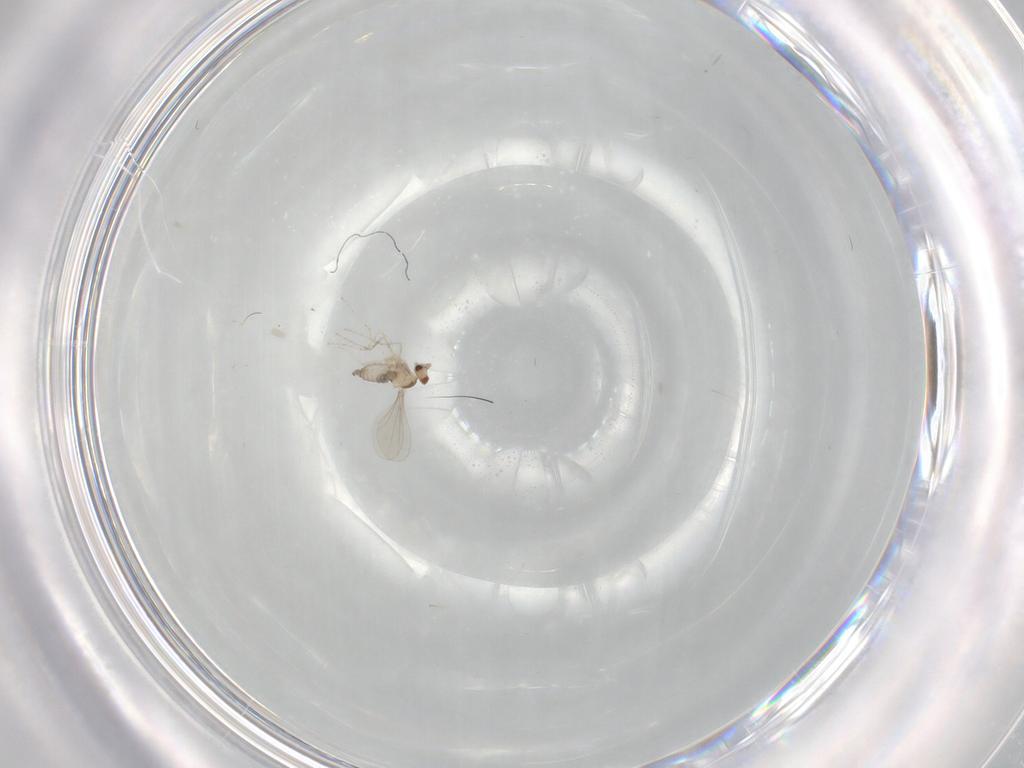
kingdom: Animalia
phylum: Arthropoda
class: Insecta
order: Diptera
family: Cecidomyiidae
